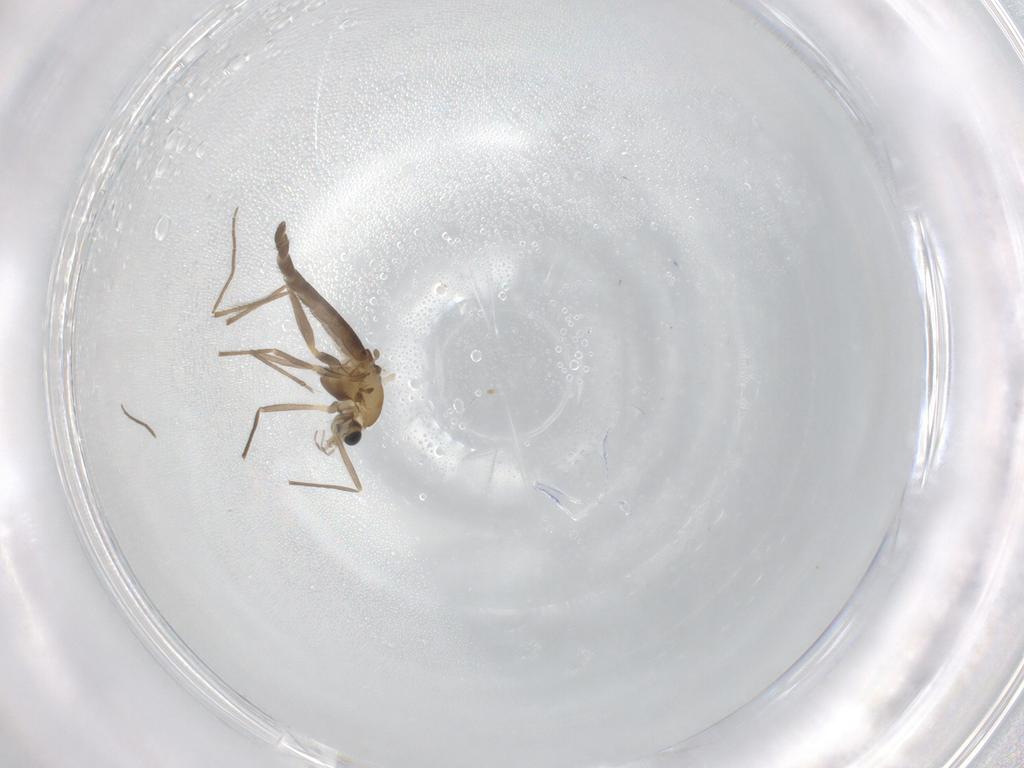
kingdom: Animalia
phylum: Arthropoda
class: Insecta
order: Diptera
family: Chironomidae
